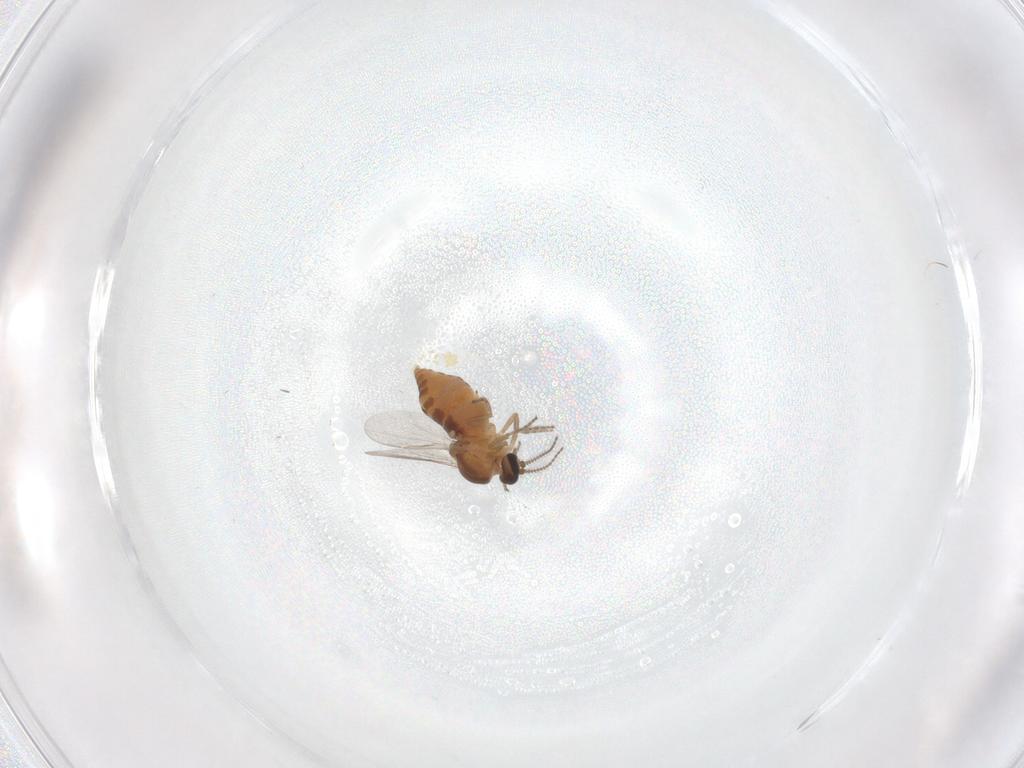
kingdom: Animalia
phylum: Arthropoda
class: Insecta
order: Diptera
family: Ceratopogonidae
